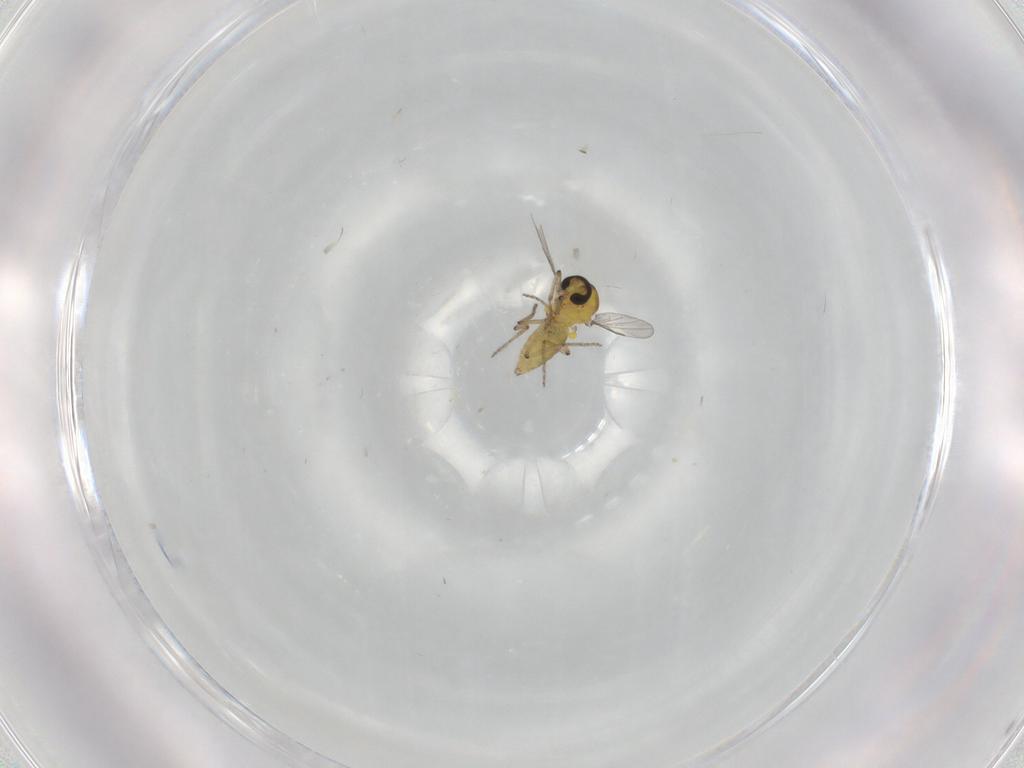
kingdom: Animalia
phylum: Arthropoda
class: Insecta
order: Diptera
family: Ceratopogonidae
